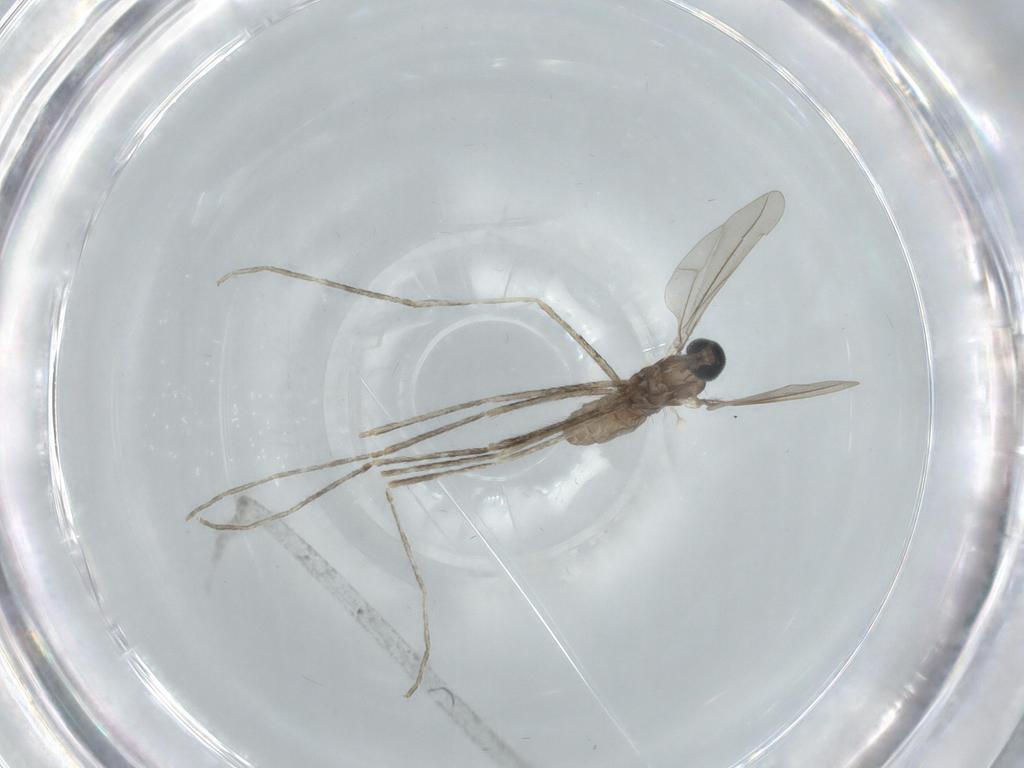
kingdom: Animalia
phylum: Arthropoda
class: Insecta
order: Diptera
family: Cecidomyiidae
